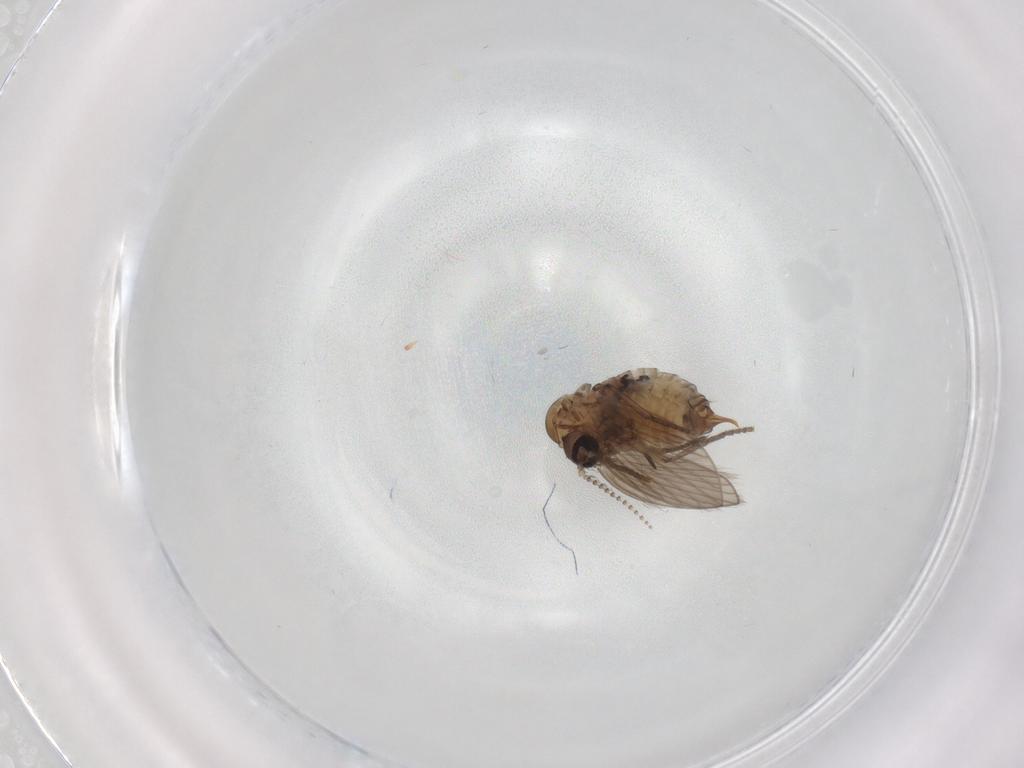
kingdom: Animalia
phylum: Arthropoda
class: Insecta
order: Diptera
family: Psychodidae
